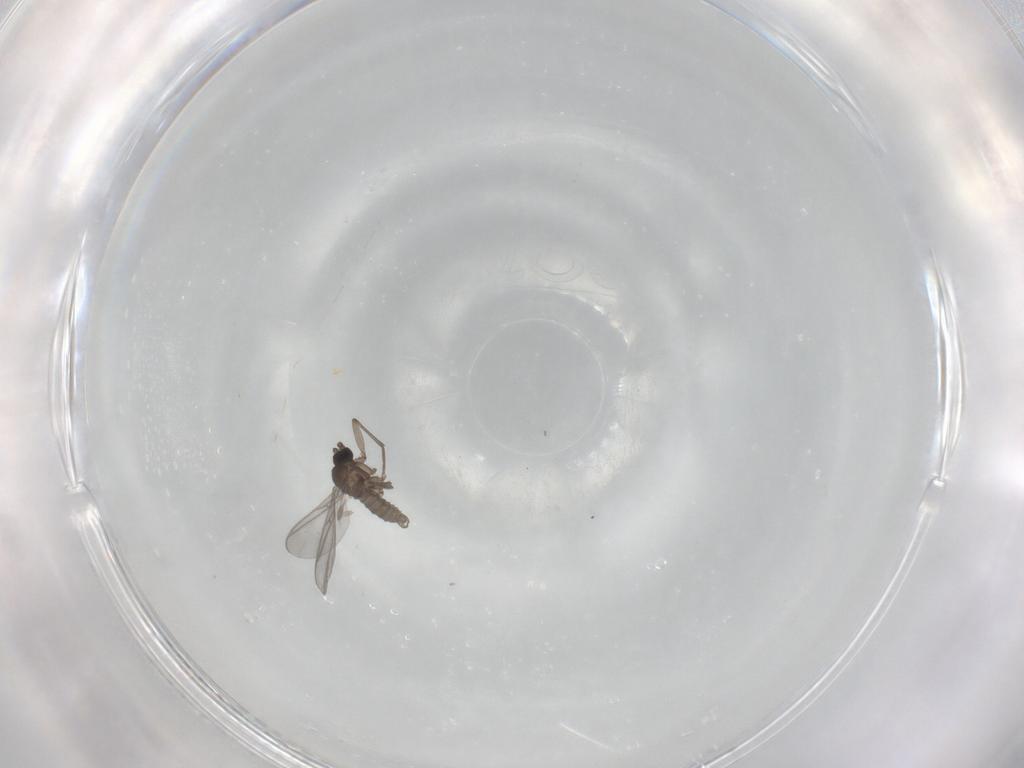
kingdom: Animalia
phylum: Arthropoda
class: Insecta
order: Diptera
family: Sciaridae
